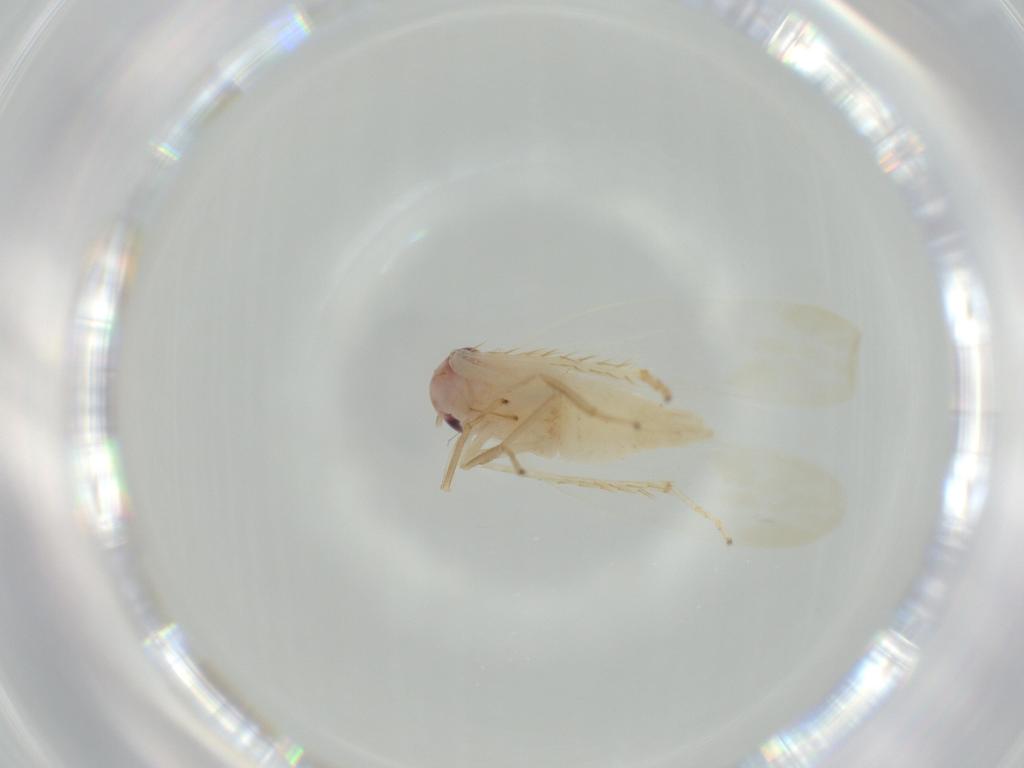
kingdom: Animalia
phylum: Arthropoda
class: Insecta
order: Hemiptera
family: Cicadellidae
